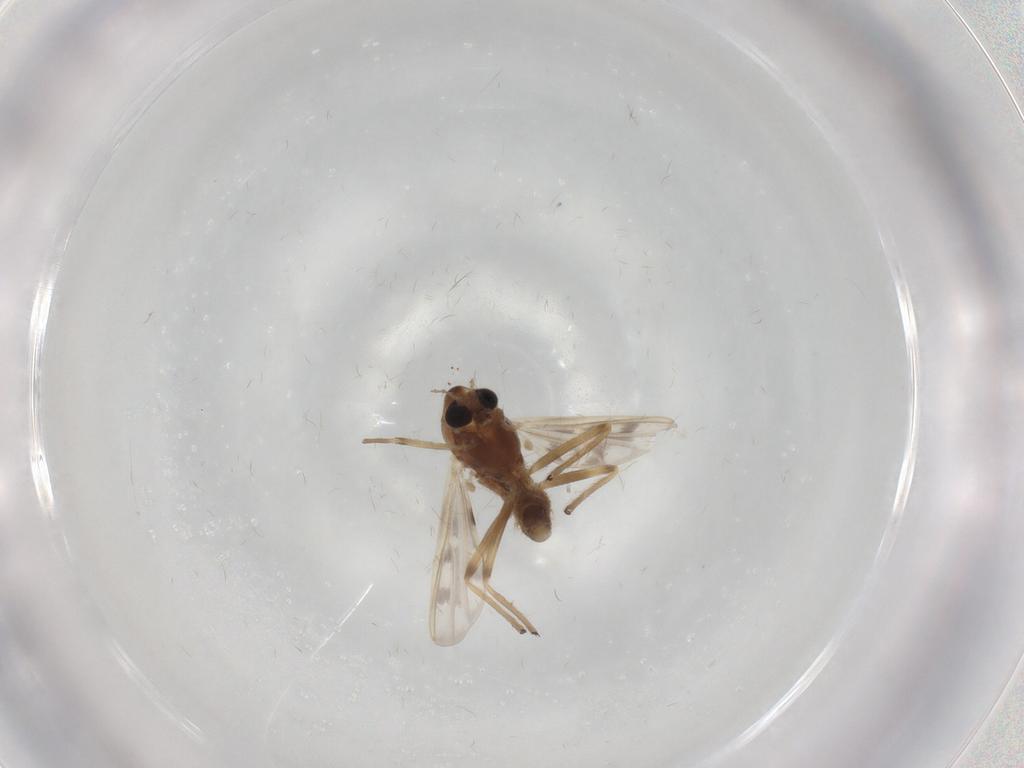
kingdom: Animalia
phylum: Arthropoda
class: Insecta
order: Diptera
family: Chironomidae
